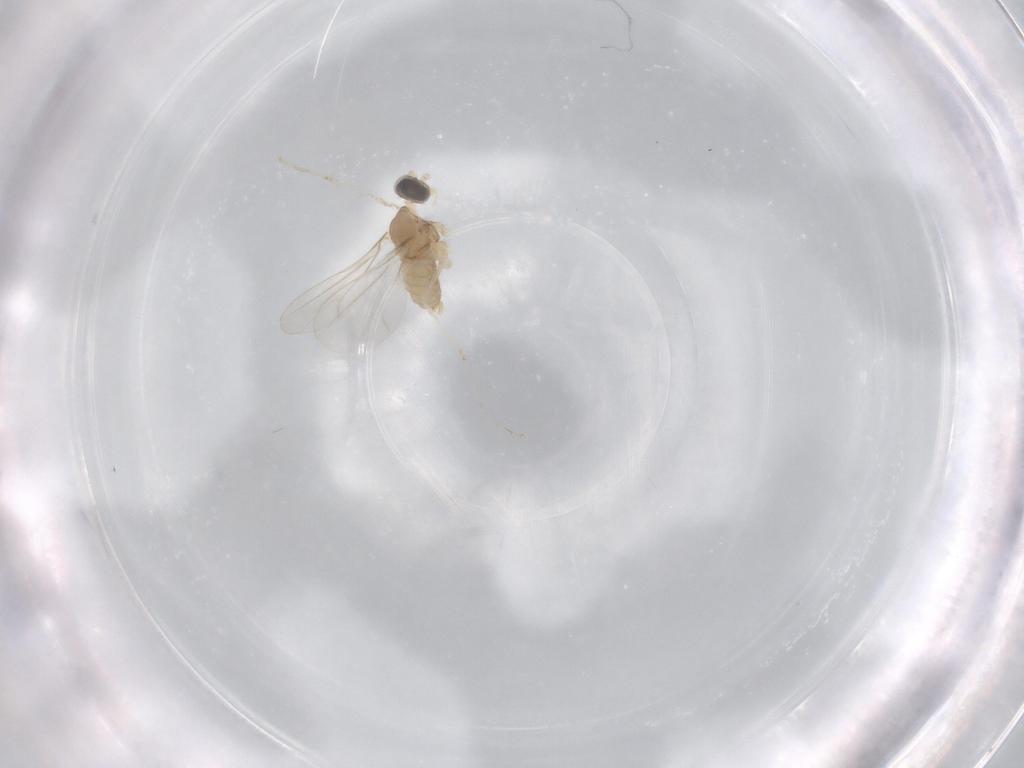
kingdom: Animalia
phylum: Arthropoda
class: Insecta
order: Diptera
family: Cecidomyiidae
